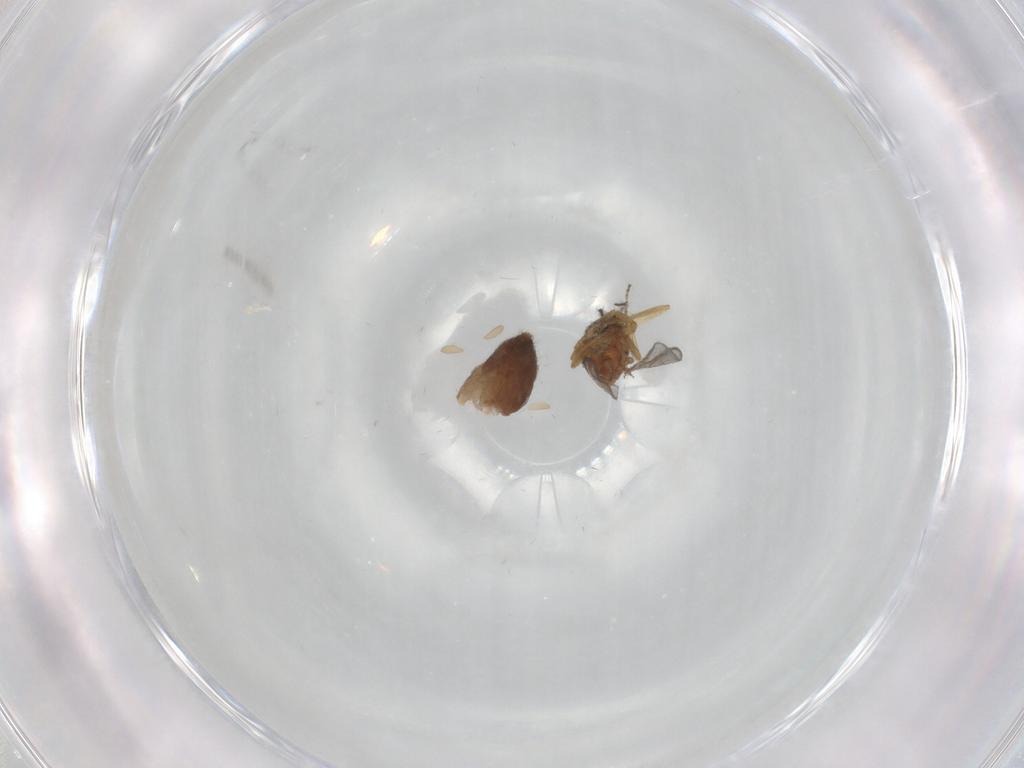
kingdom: Animalia
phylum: Arthropoda
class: Insecta
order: Diptera
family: Ceratopogonidae
